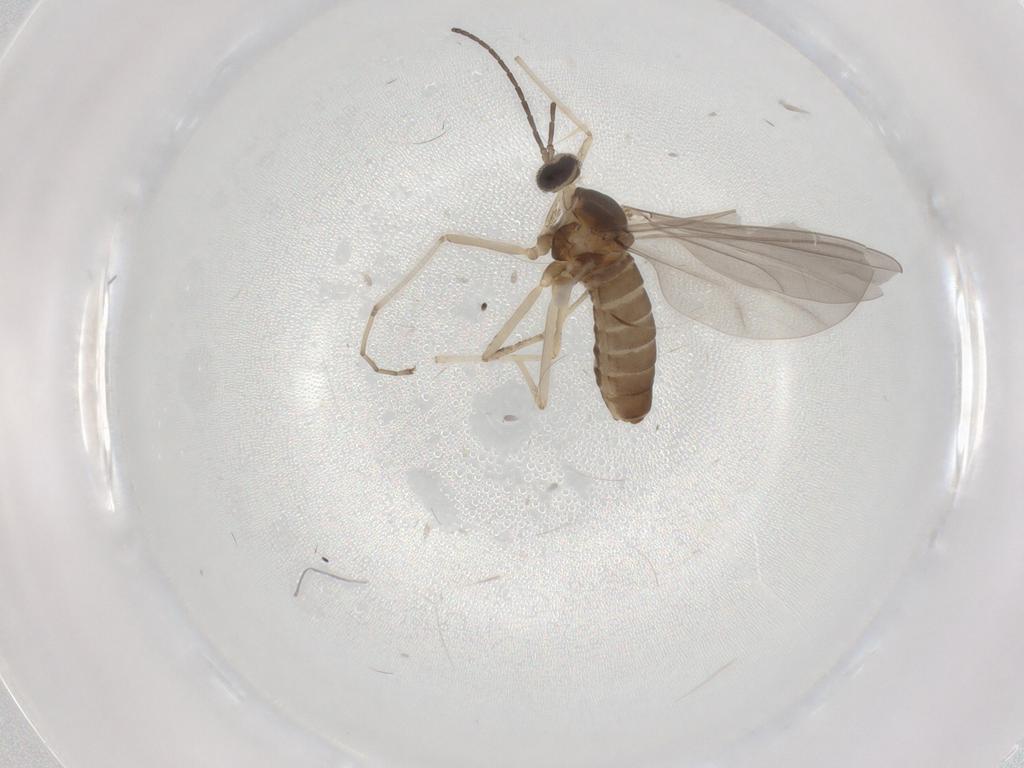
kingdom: Animalia
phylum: Arthropoda
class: Insecta
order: Diptera
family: Cecidomyiidae
